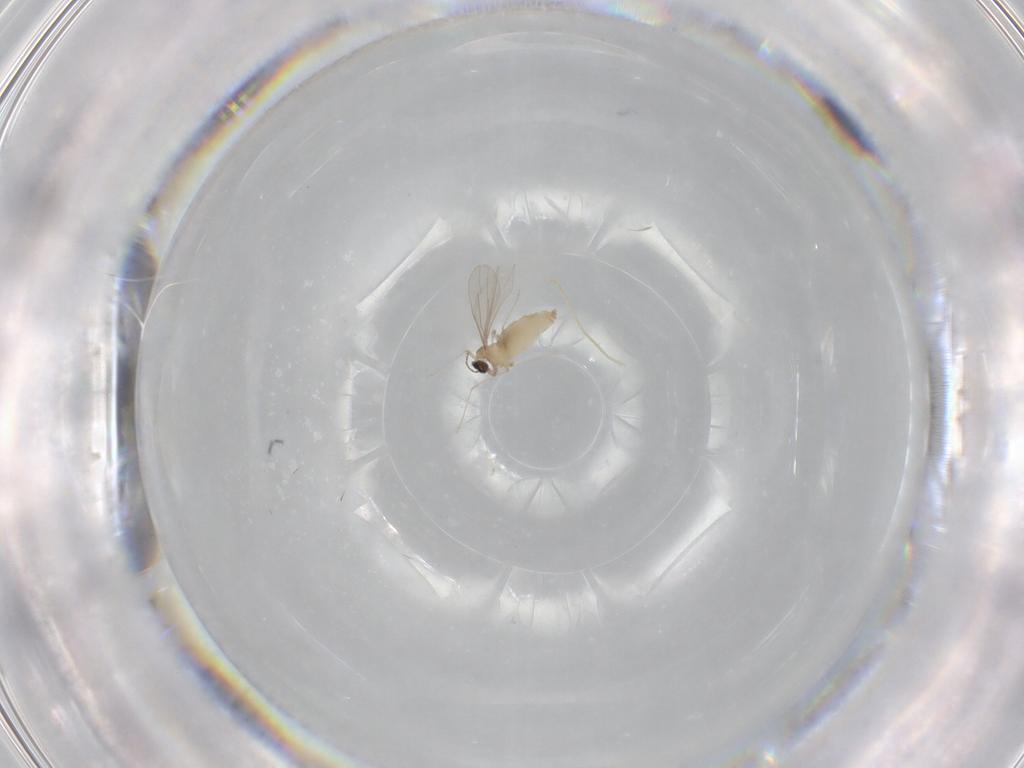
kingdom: Animalia
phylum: Arthropoda
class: Insecta
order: Diptera
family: Cecidomyiidae
